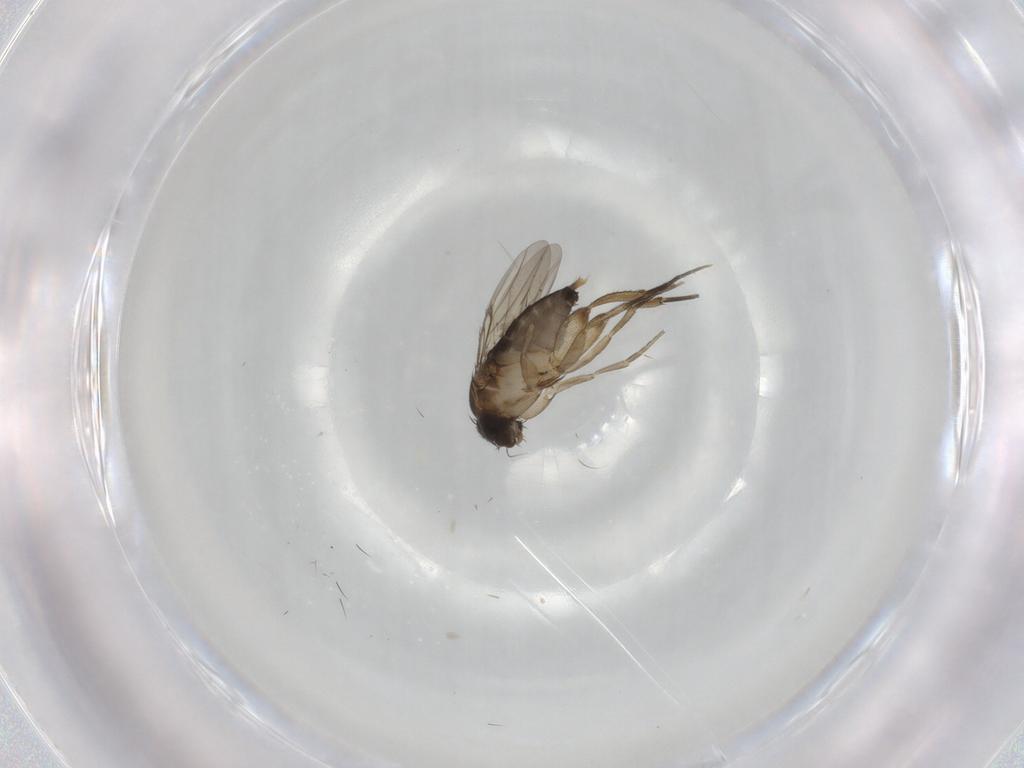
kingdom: Animalia
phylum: Arthropoda
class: Insecta
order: Diptera
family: Phoridae
